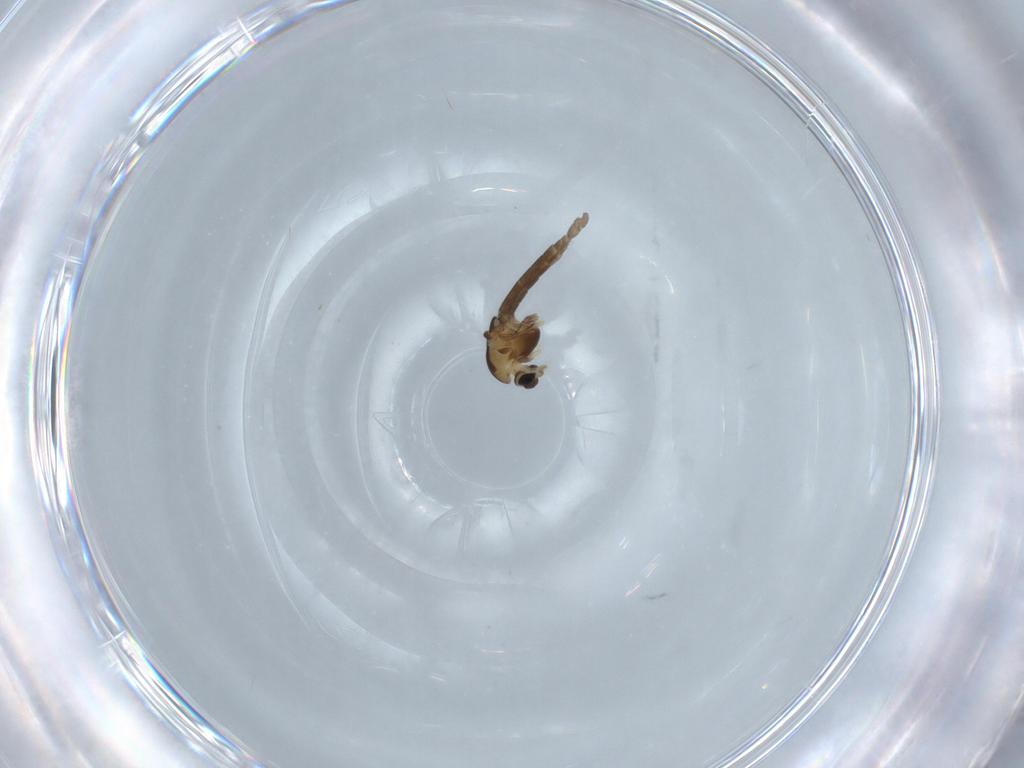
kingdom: Animalia
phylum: Arthropoda
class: Insecta
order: Diptera
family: Chironomidae
